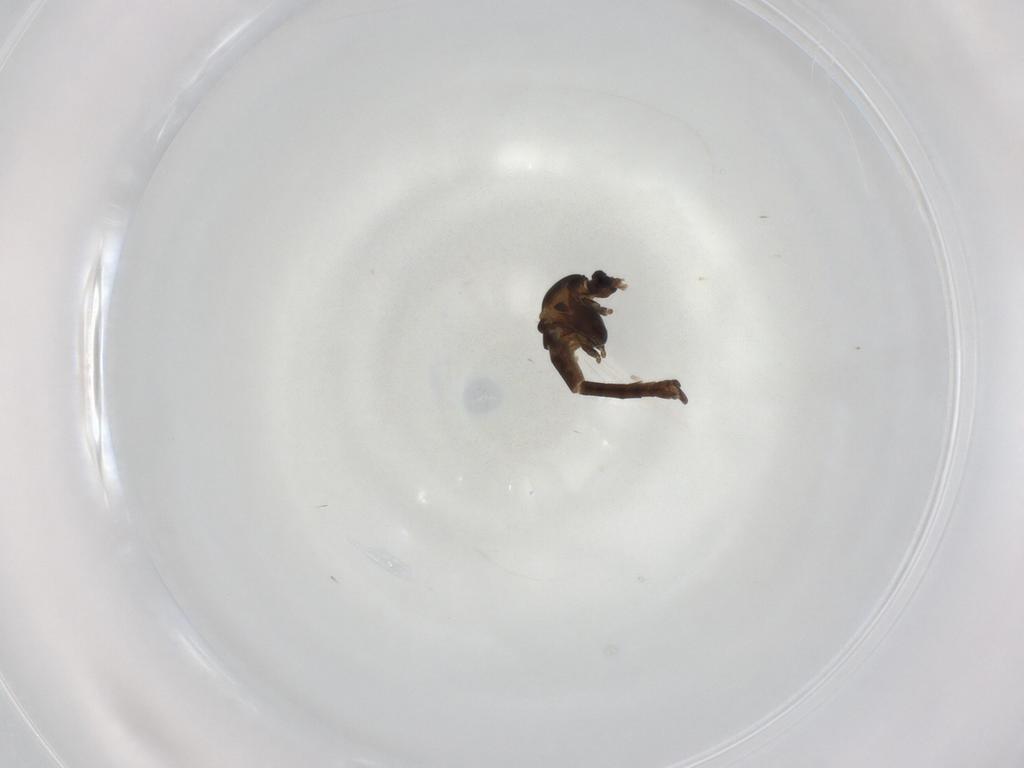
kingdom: Animalia
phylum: Arthropoda
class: Insecta
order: Diptera
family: Chironomidae
